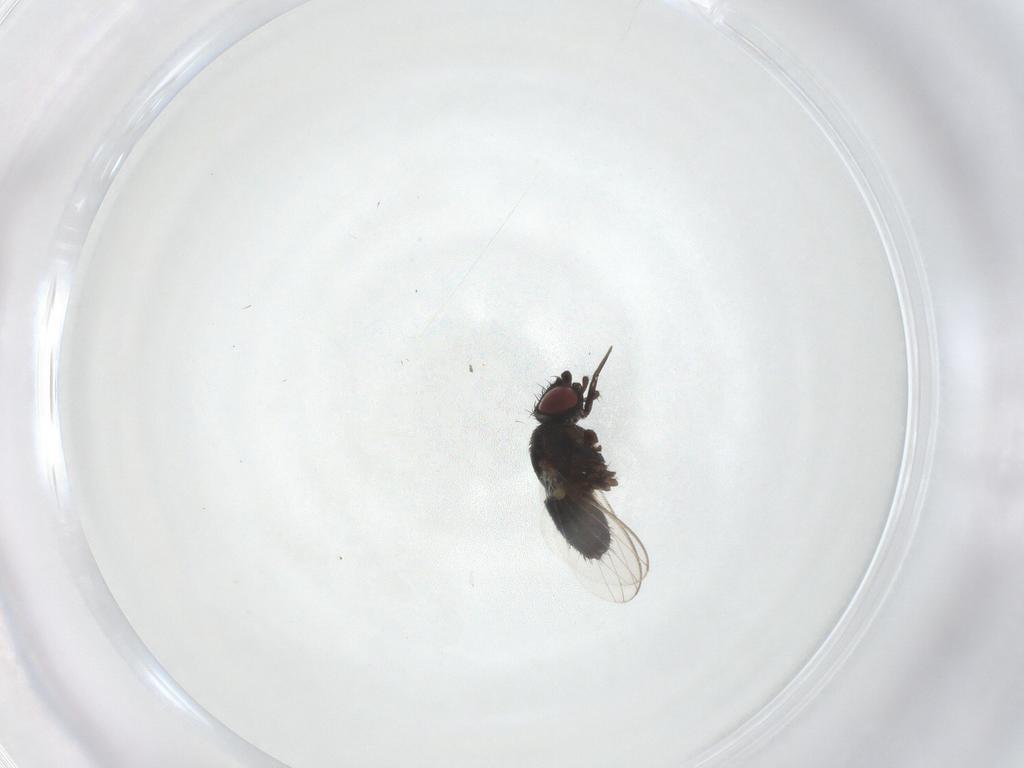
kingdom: Animalia
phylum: Arthropoda
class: Insecta
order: Diptera
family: Milichiidae
